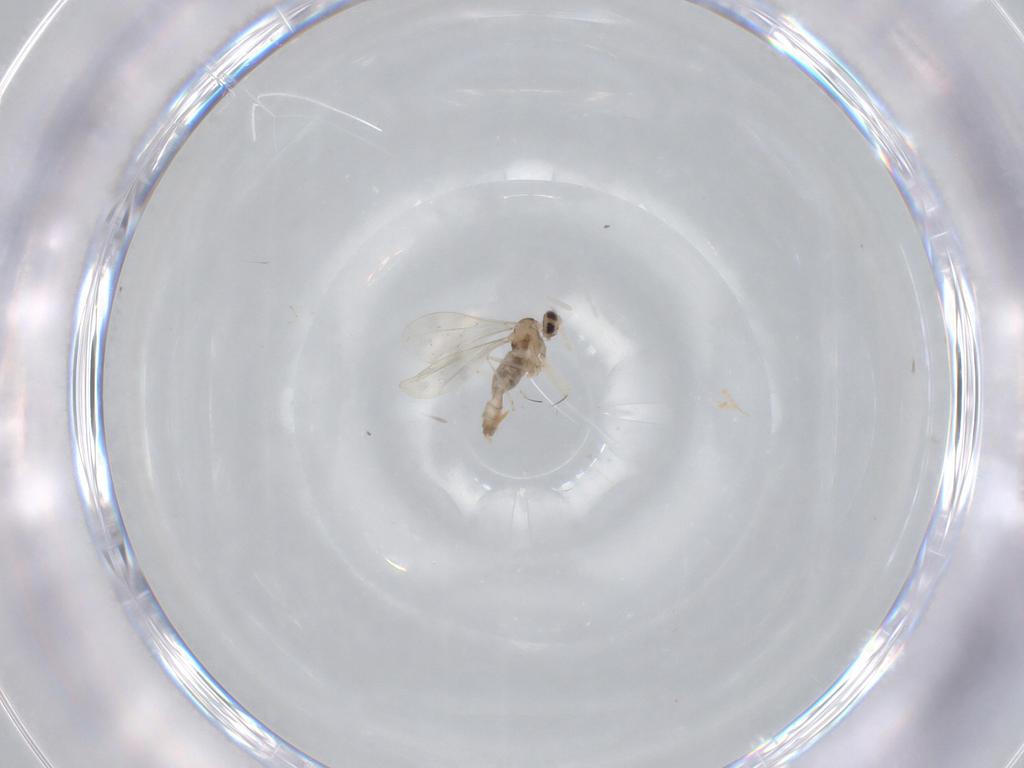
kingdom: Animalia
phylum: Arthropoda
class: Insecta
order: Diptera
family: Cecidomyiidae
